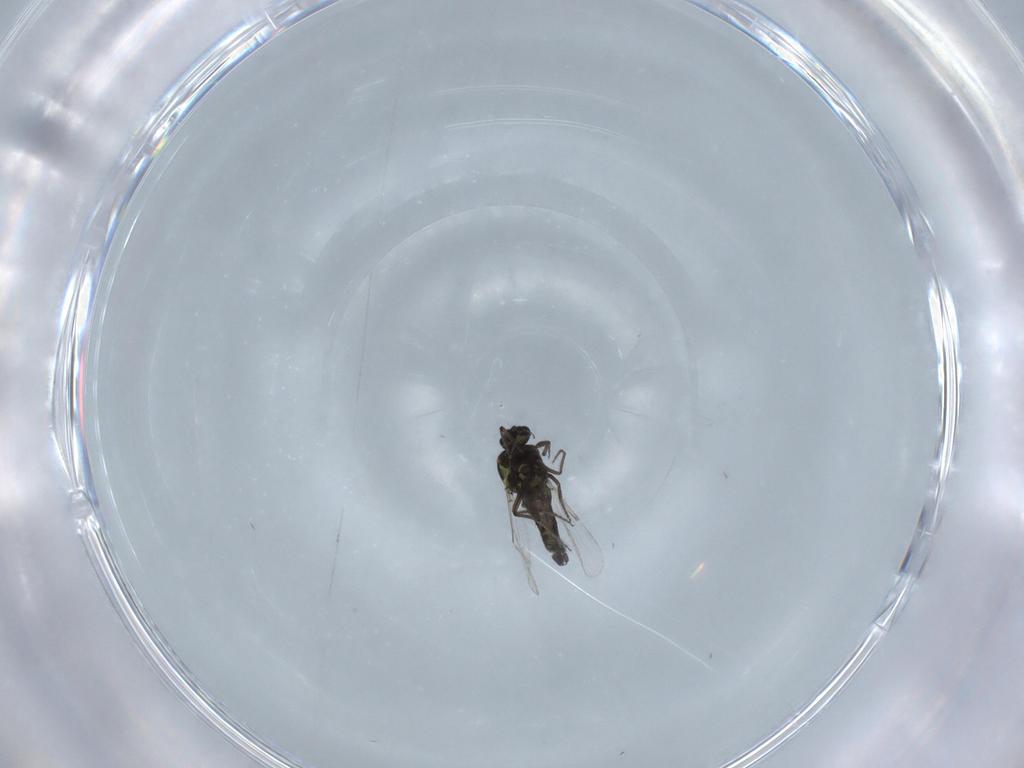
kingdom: Animalia
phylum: Arthropoda
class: Insecta
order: Diptera
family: Ceratopogonidae
